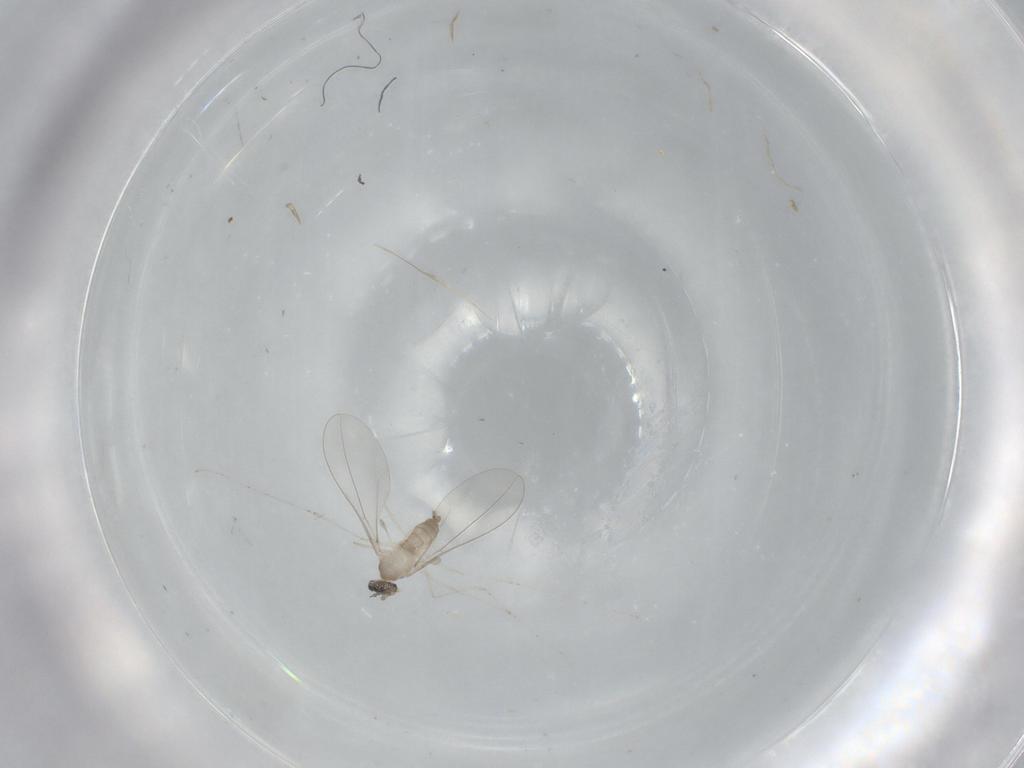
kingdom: Animalia
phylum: Arthropoda
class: Insecta
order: Diptera
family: Cecidomyiidae
